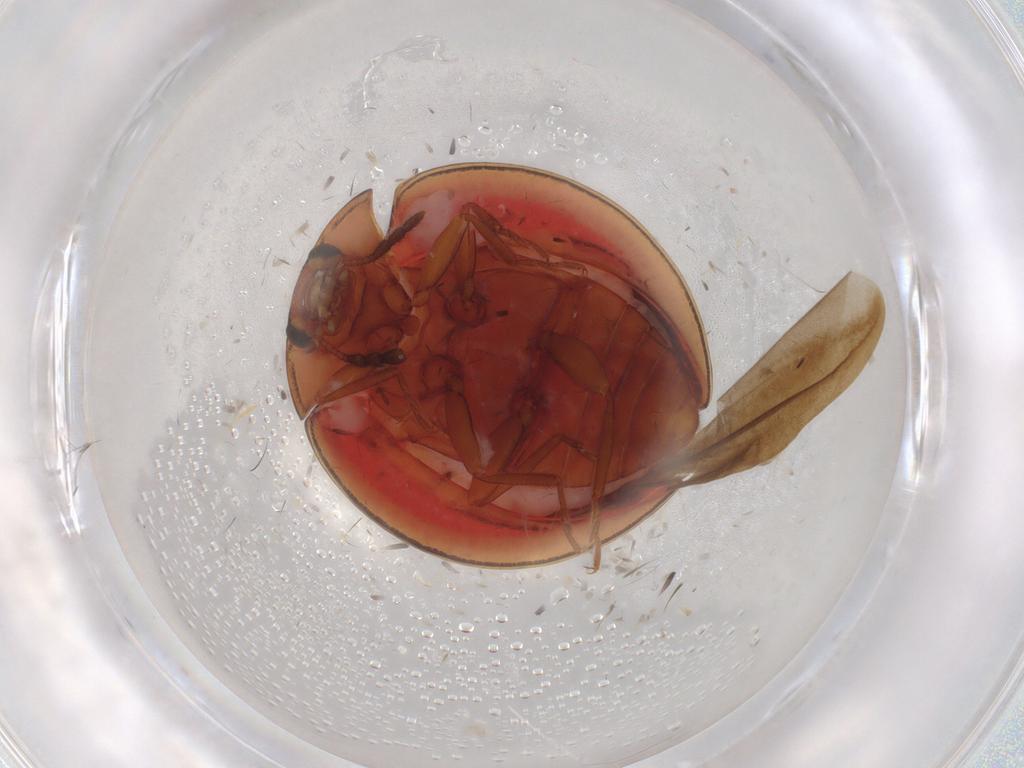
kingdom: Animalia
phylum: Arthropoda
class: Insecta
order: Coleoptera
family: Anamorphidae
